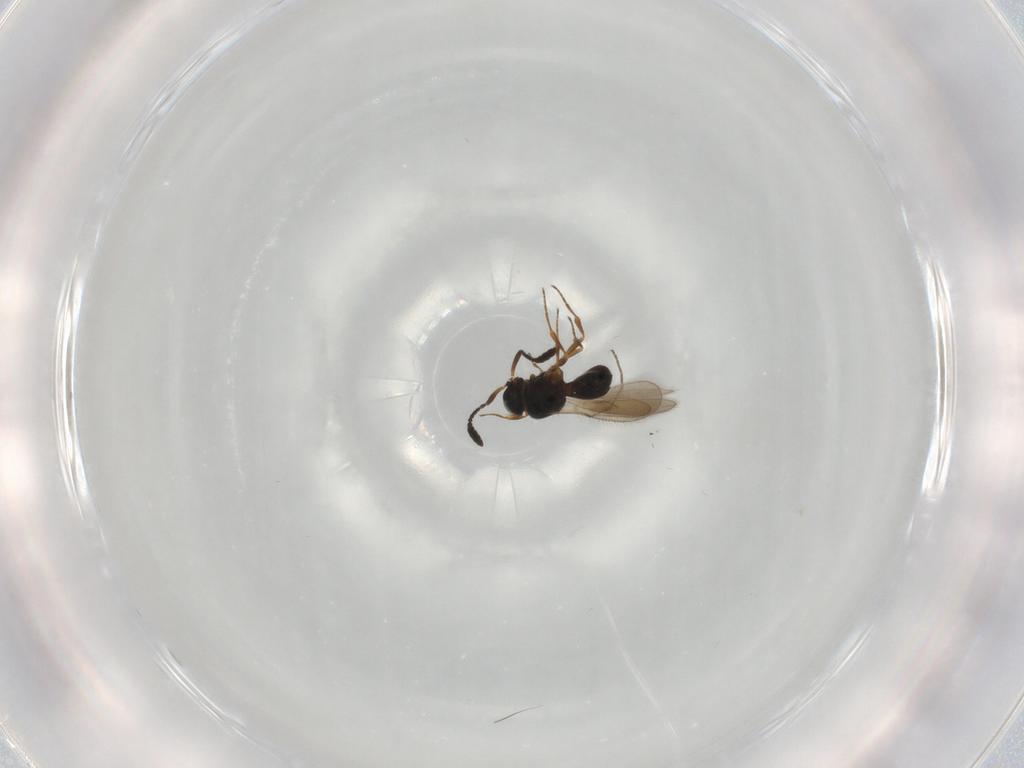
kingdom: Animalia
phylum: Arthropoda
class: Insecta
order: Hymenoptera
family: Scelionidae
